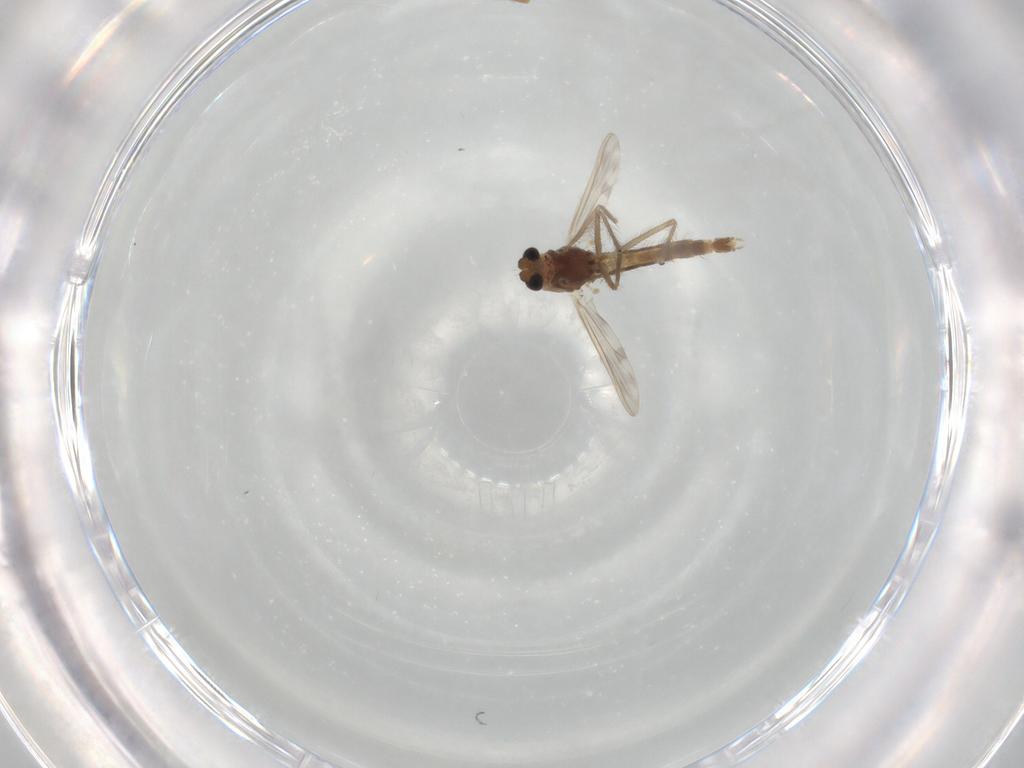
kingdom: Animalia
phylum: Arthropoda
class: Insecta
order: Diptera
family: Chironomidae
